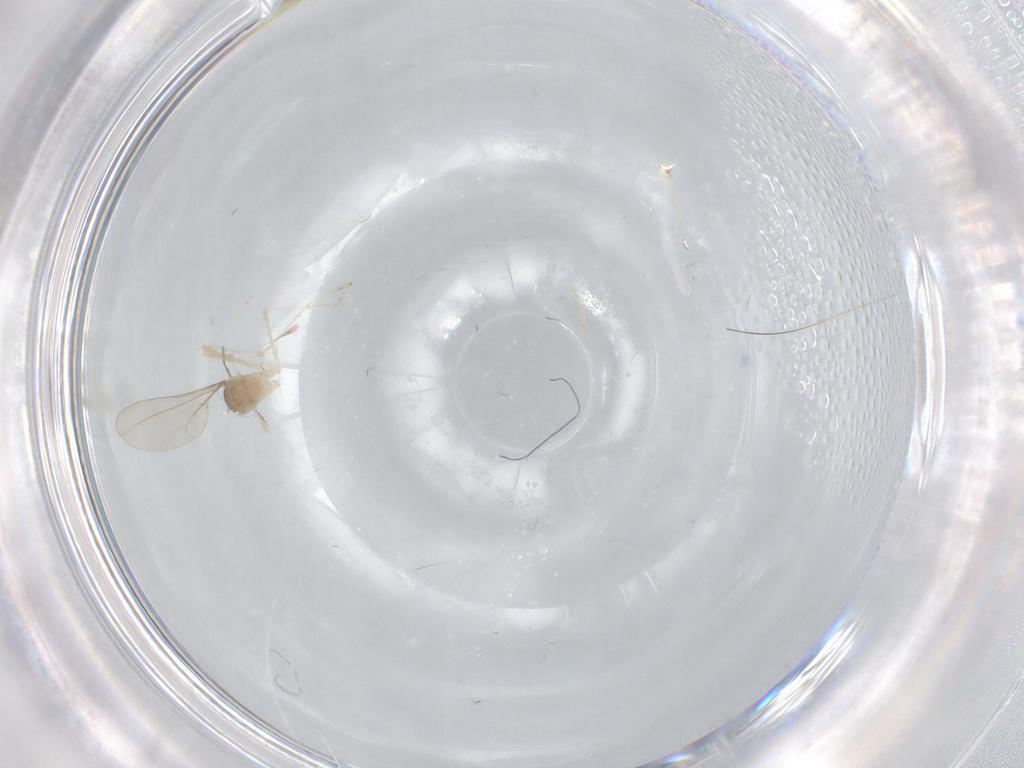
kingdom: Animalia
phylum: Arthropoda
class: Insecta
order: Diptera
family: Cecidomyiidae
